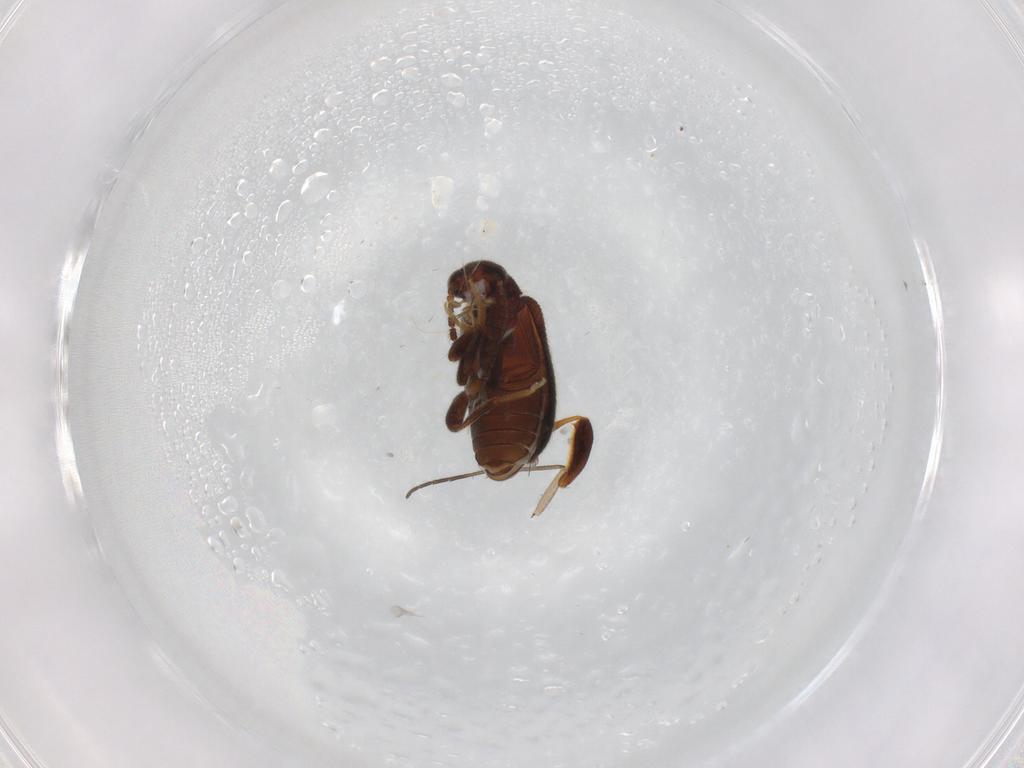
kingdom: Animalia
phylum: Arthropoda
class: Insecta
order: Coleoptera
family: Aderidae
